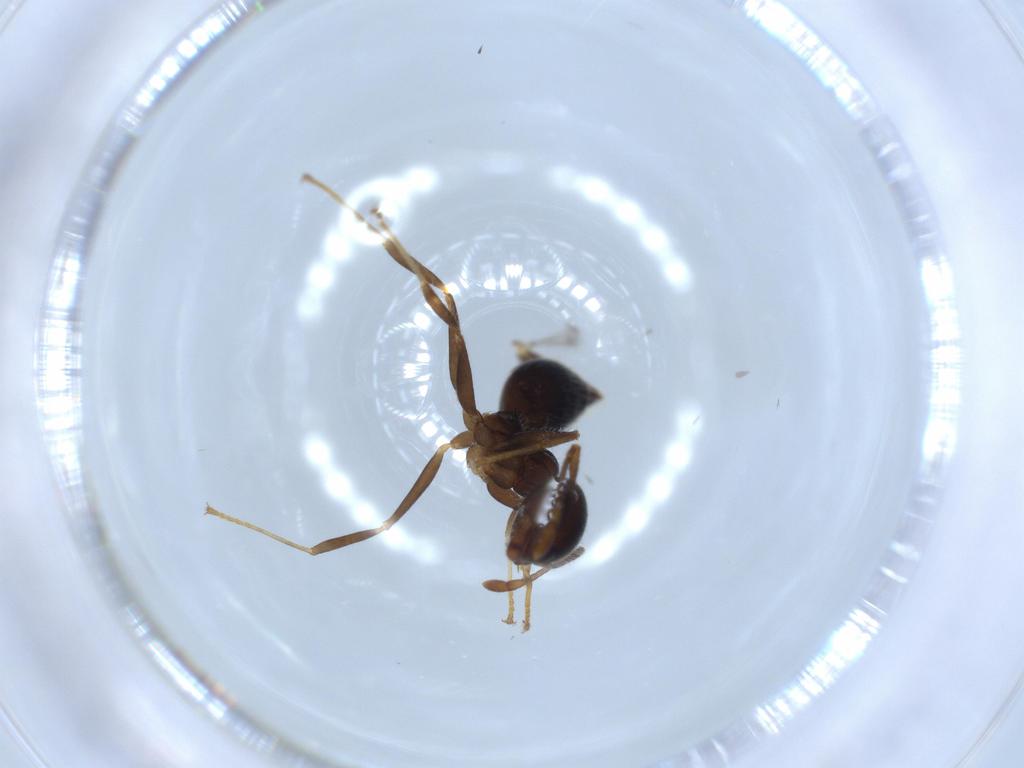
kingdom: Animalia
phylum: Arthropoda
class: Insecta
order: Hymenoptera
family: Formicidae
